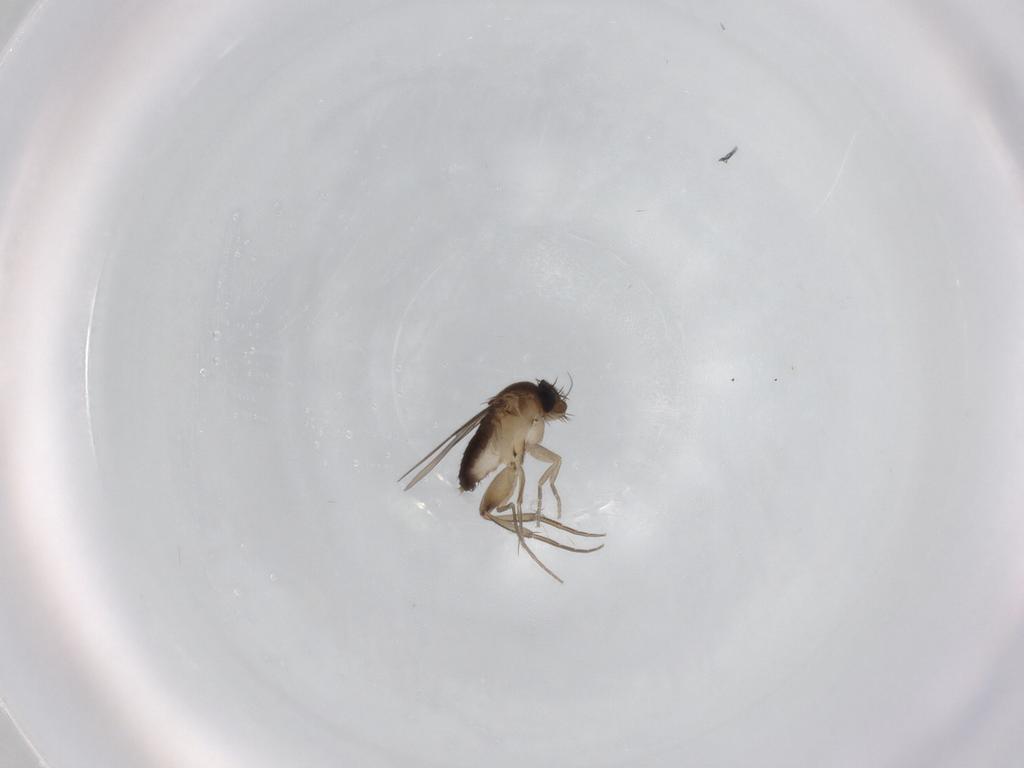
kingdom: Animalia
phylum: Arthropoda
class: Insecta
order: Diptera
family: Phoridae
